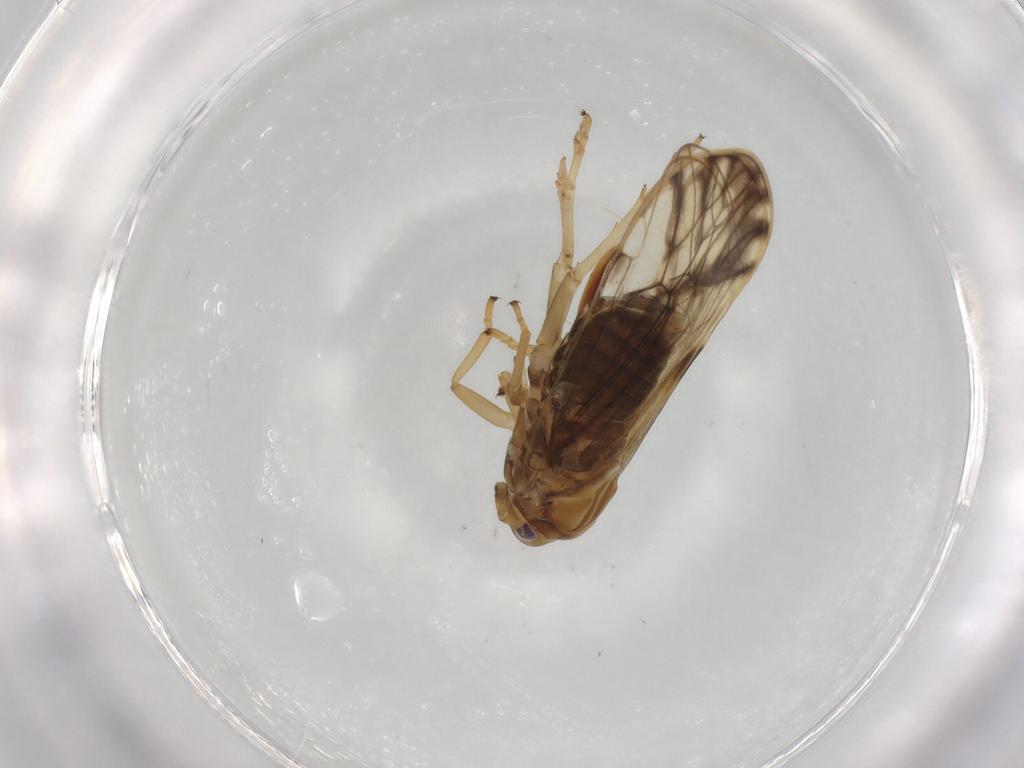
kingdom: Animalia
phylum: Arthropoda
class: Insecta
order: Hemiptera
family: Delphacidae
